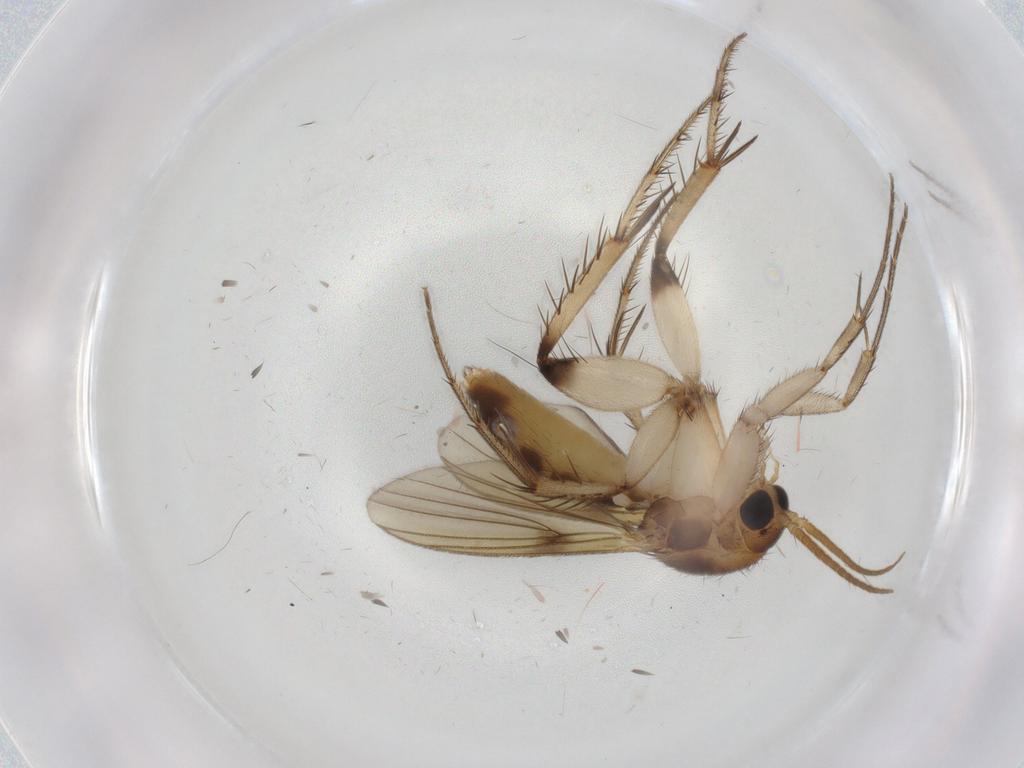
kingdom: Animalia
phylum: Arthropoda
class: Insecta
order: Diptera
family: Cecidomyiidae
